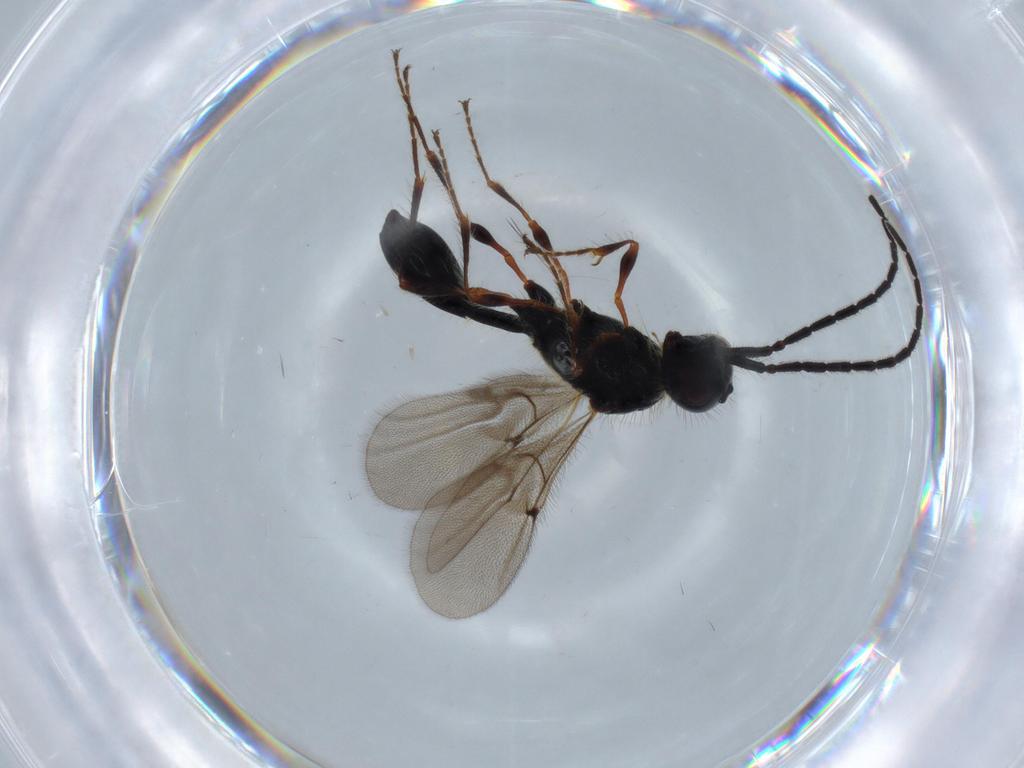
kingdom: Animalia
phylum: Arthropoda
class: Insecta
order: Hymenoptera
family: Diapriidae
